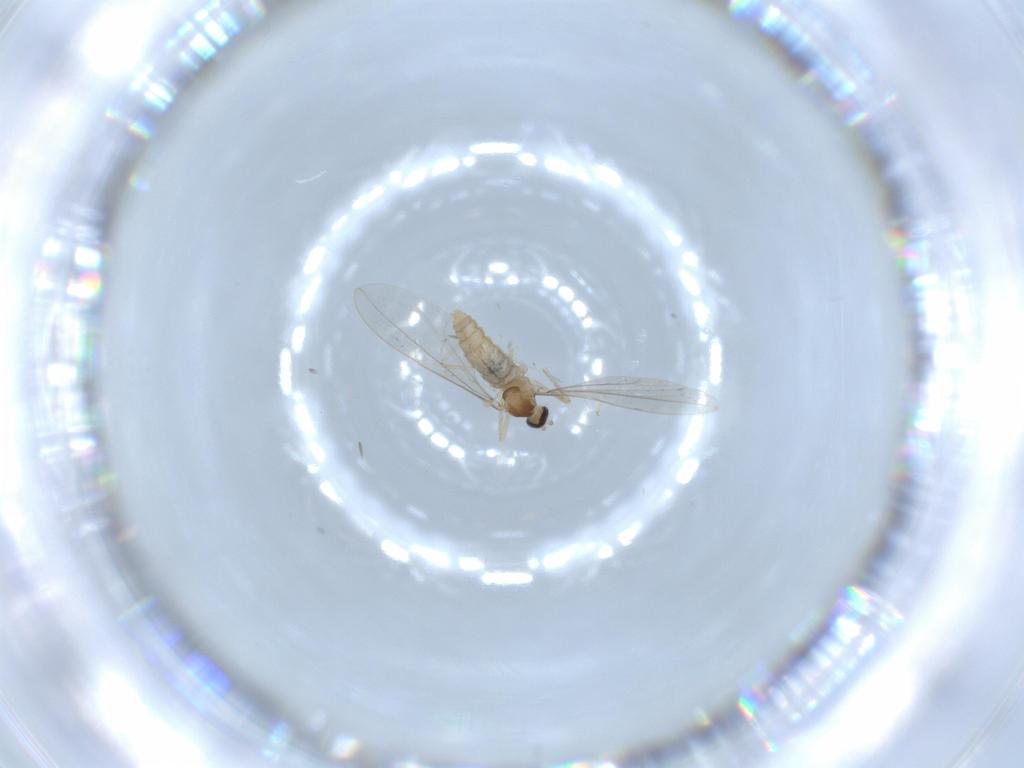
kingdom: Animalia
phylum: Arthropoda
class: Insecta
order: Diptera
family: Cecidomyiidae
